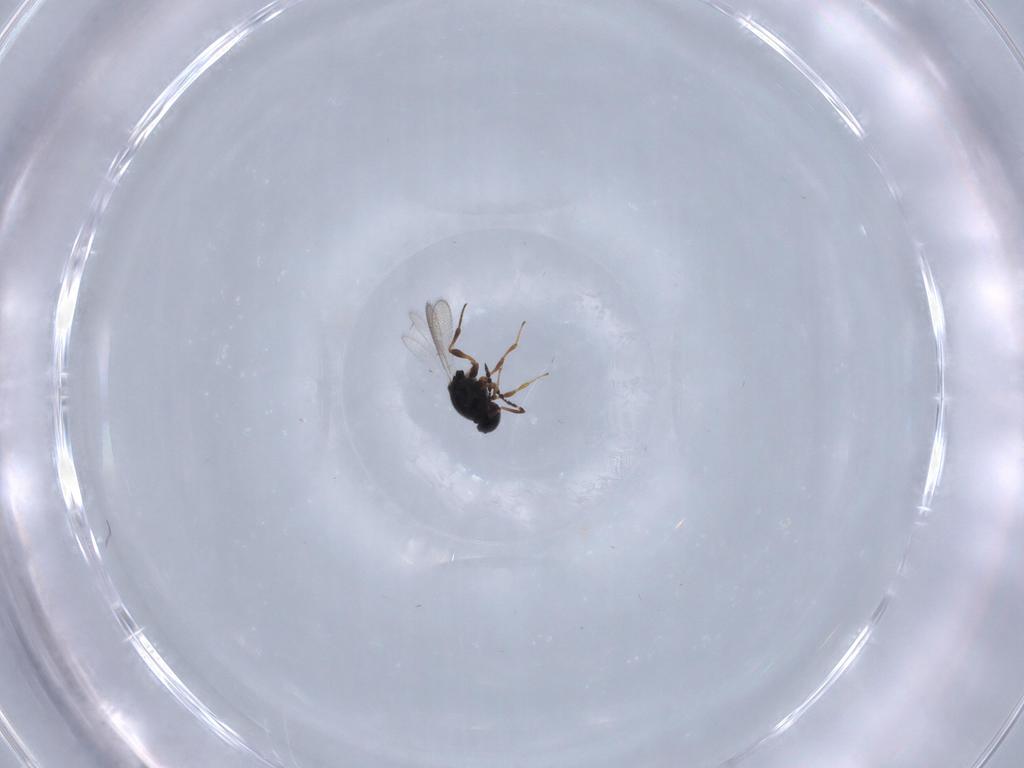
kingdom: Animalia
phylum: Arthropoda
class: Insecta
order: Hymenoptera
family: Platygastridae
